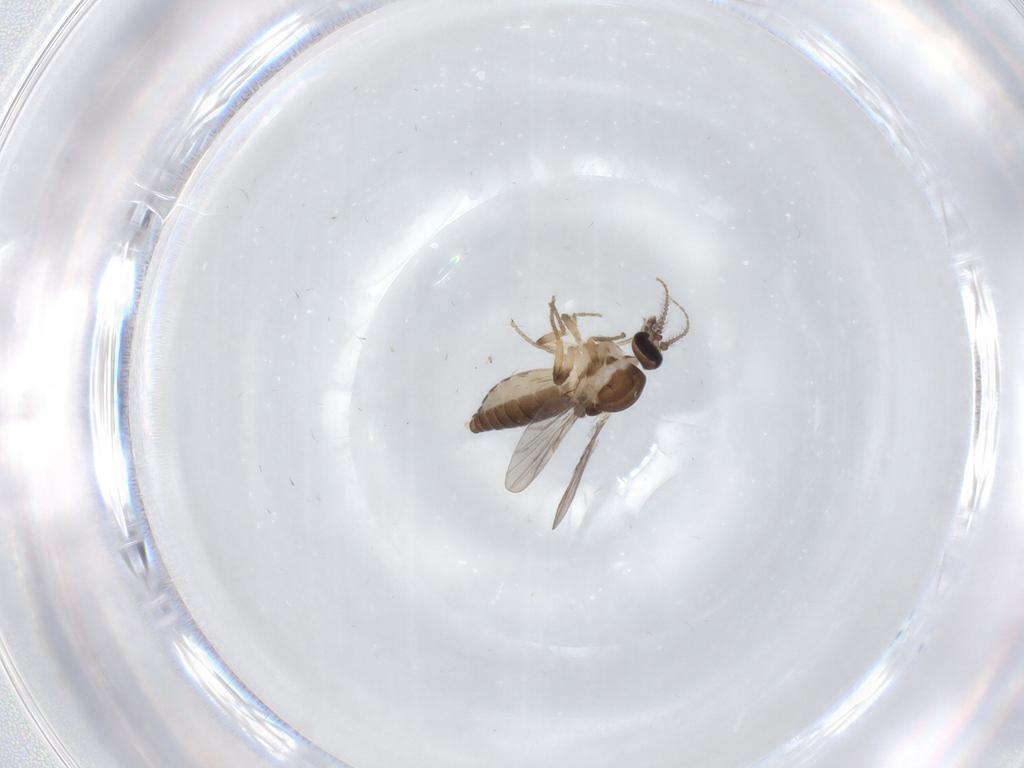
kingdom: Animalia
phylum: Arthropoda
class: Insecta
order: Diptera
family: Ceratopogonidae
